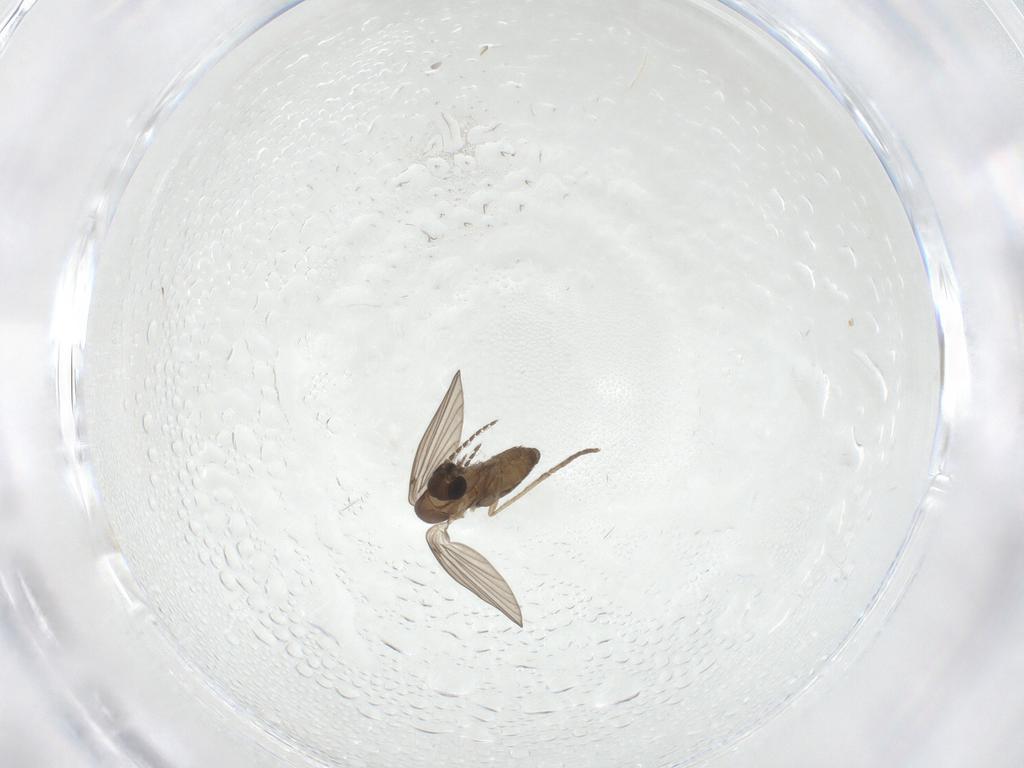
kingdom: Animalia
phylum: Arthropoda
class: Insecta
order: Diptera
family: Psychodidae
